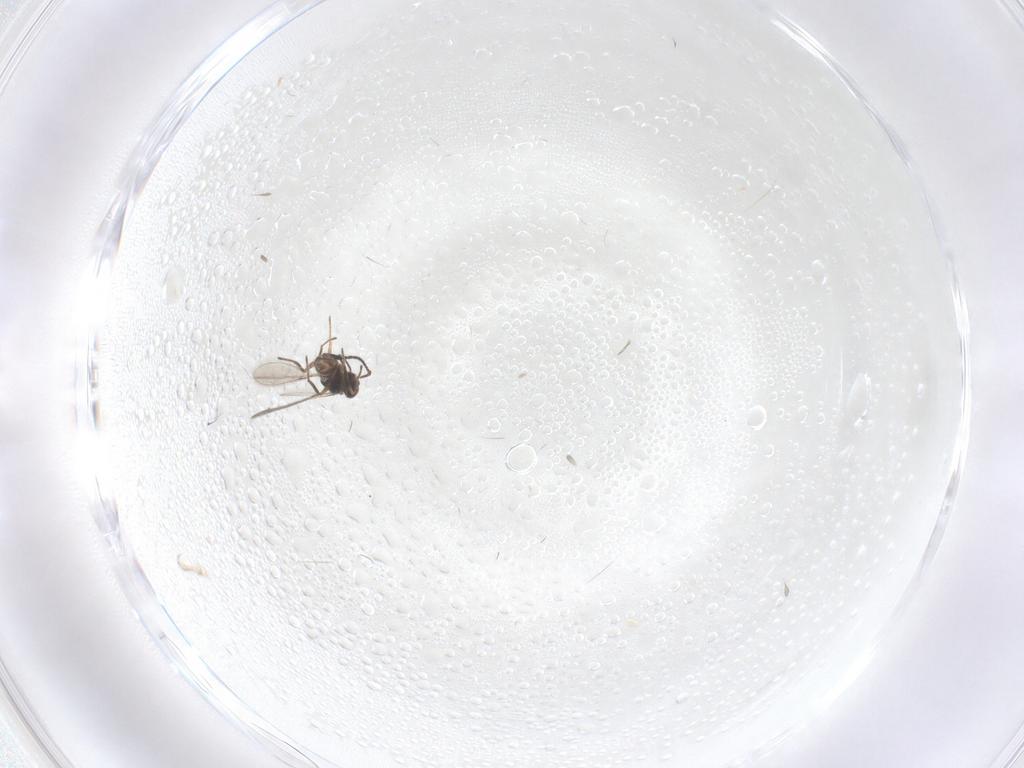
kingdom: Animalia
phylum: Arthropoda
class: Insecta
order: Hymenoptera
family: Mymaridae
